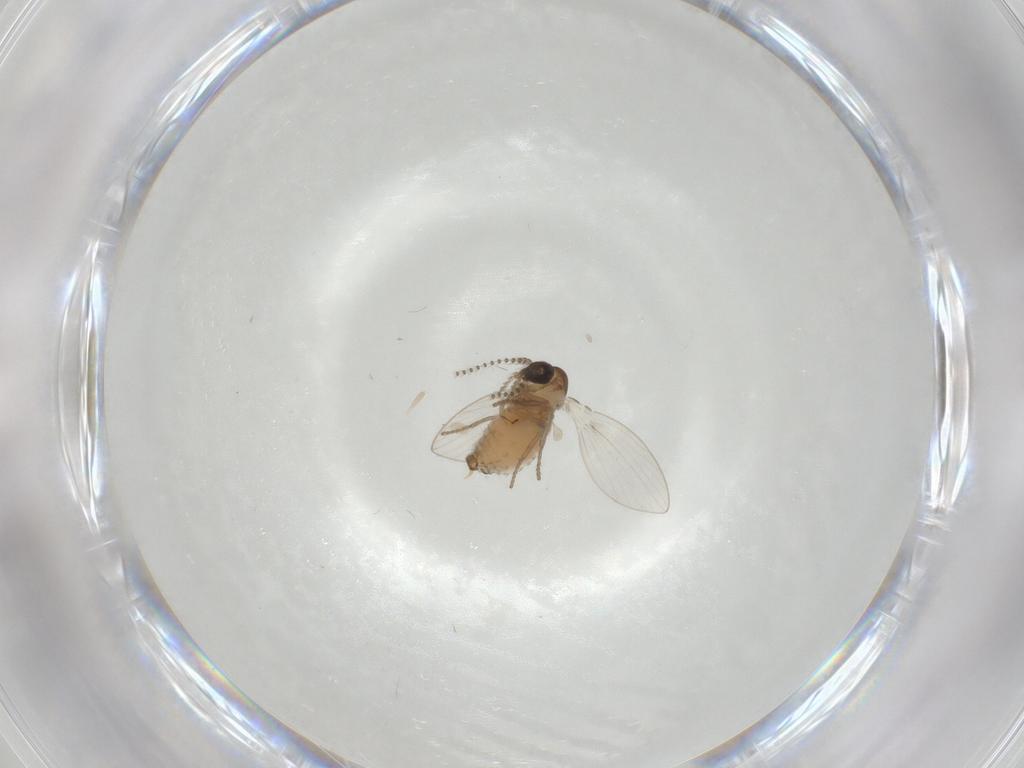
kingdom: Animalia
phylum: Arthropoda
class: Insecta
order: Diptera
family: Psychodidae
